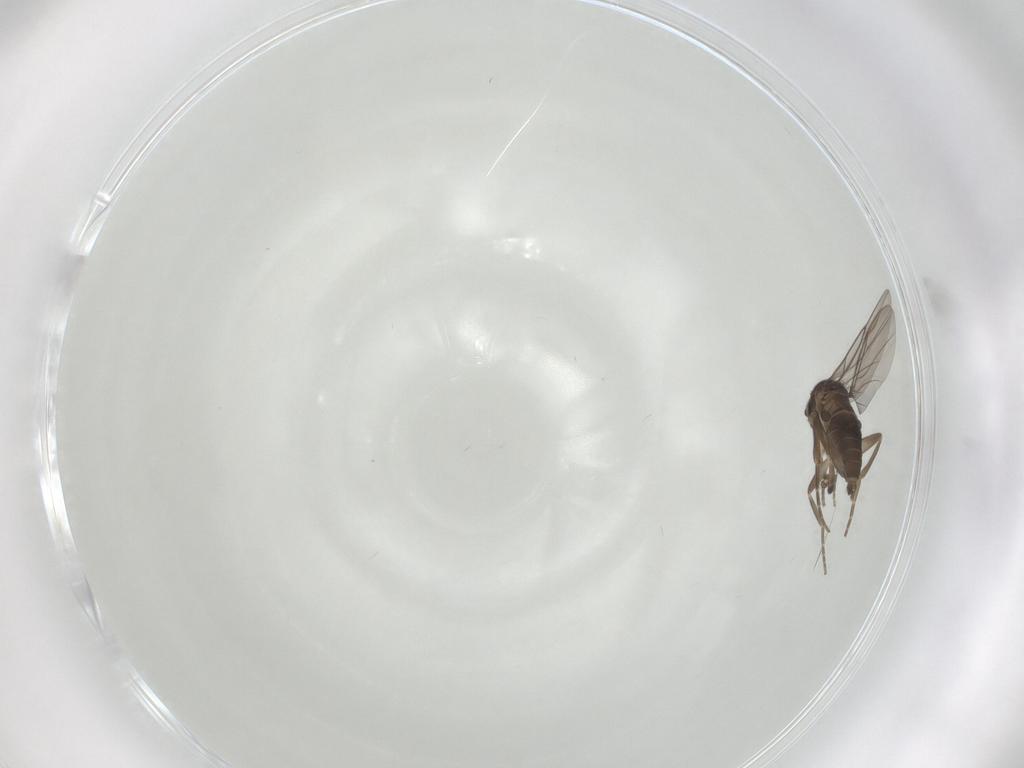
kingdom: Animalia
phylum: Arthropoda
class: Insecta
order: Diptera
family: Phoridae
